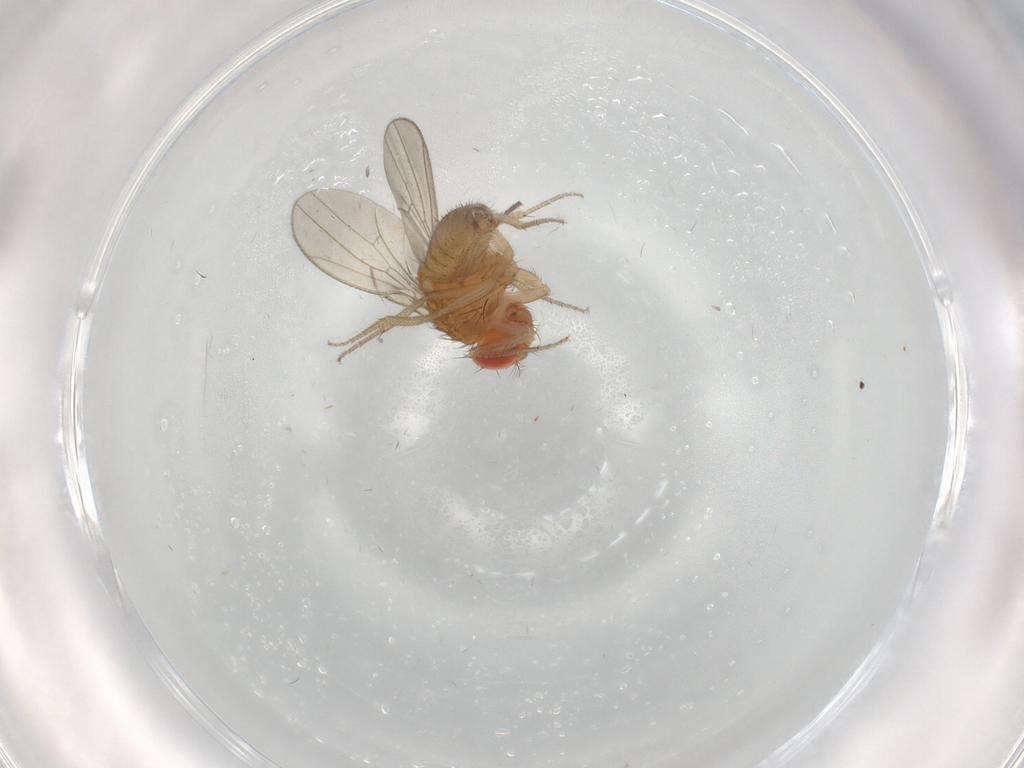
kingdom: Animalia
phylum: Arthropoda
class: Insecta
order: Diptera
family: Drosophilidae
